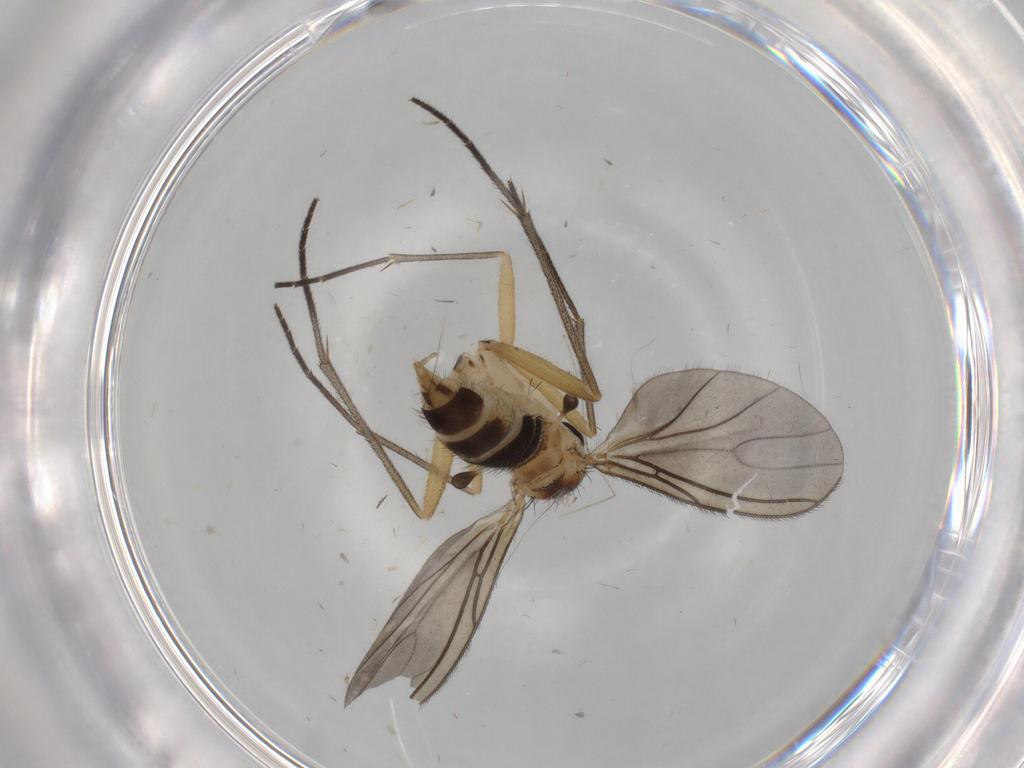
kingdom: Animalia
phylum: Arthropoda
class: Insecta
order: Diptera
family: Sciaridae
